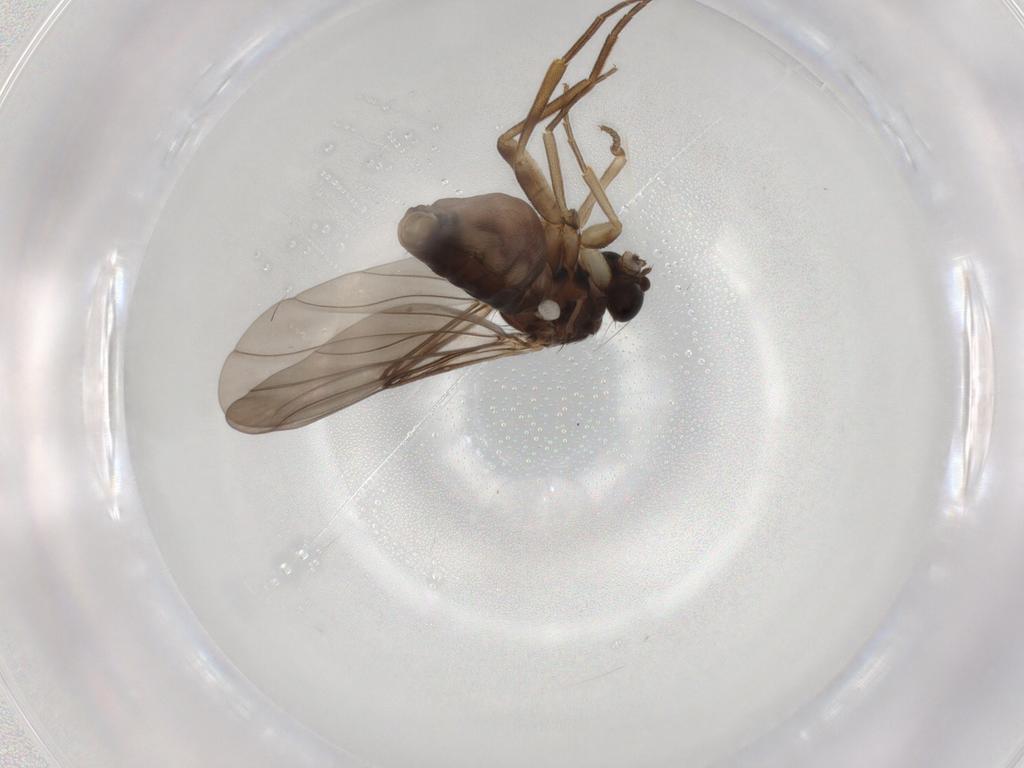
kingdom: Animalia
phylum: Arthropoda
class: Insecta
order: Diptera
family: Phoridae
